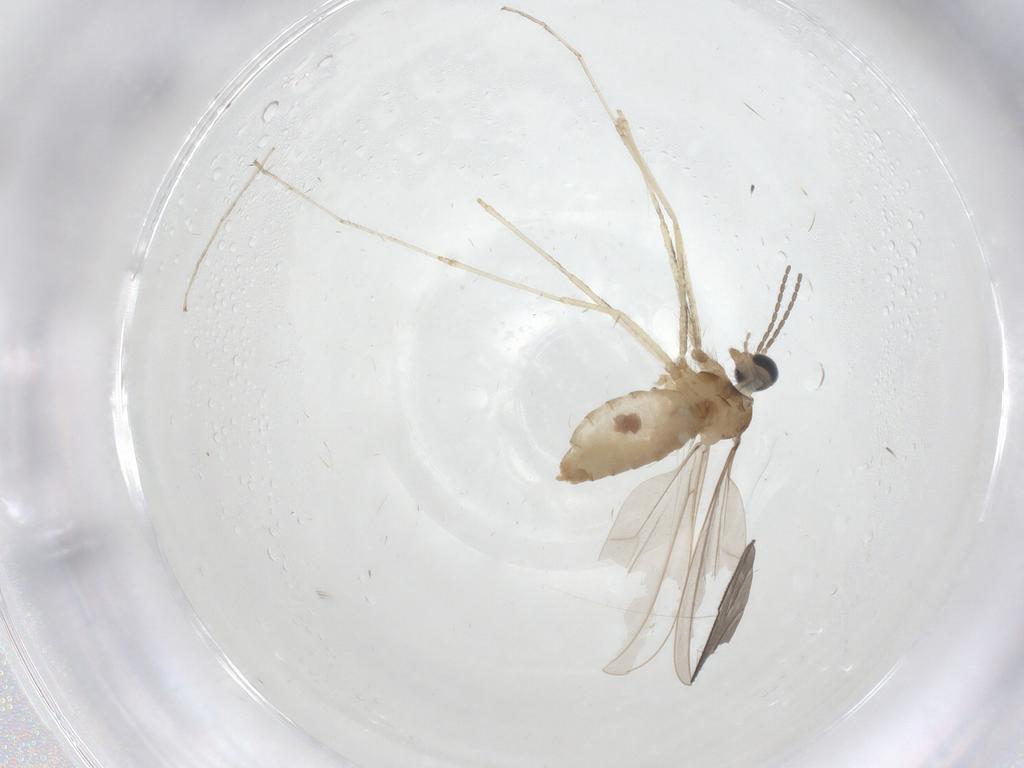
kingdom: Animalia
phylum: Arthropoda
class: Insecta
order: Diptera
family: Cecidomyiidae
